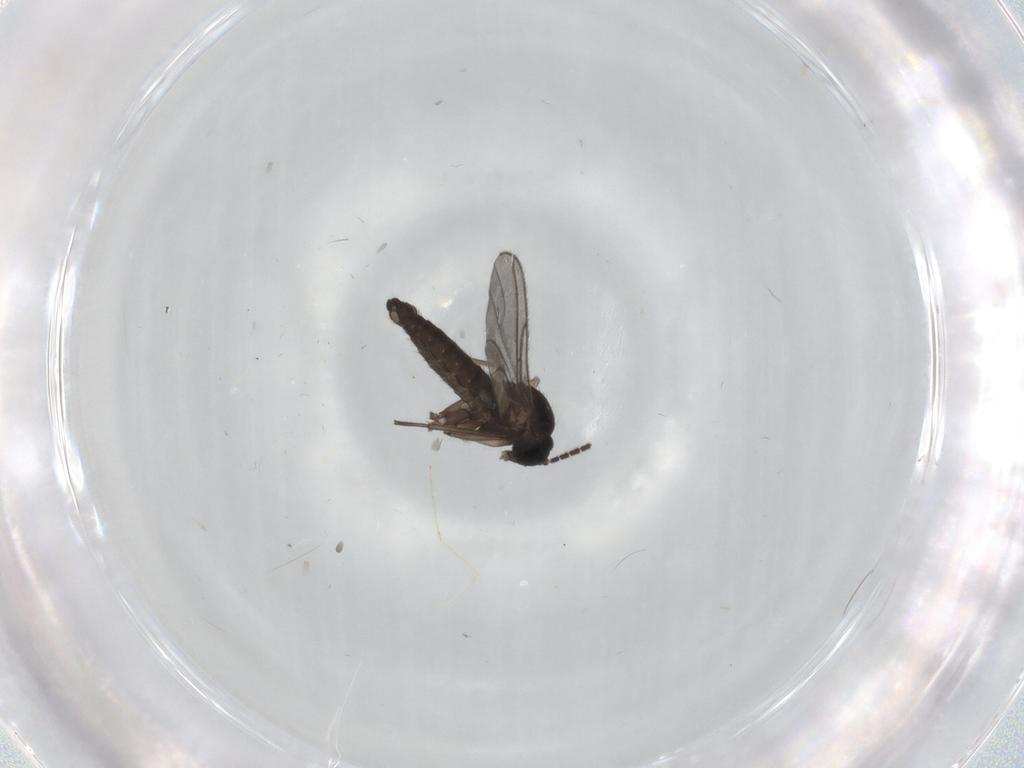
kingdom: Animalia
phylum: Arthropoda
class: Insecta
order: Diptera
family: Sciaridae
